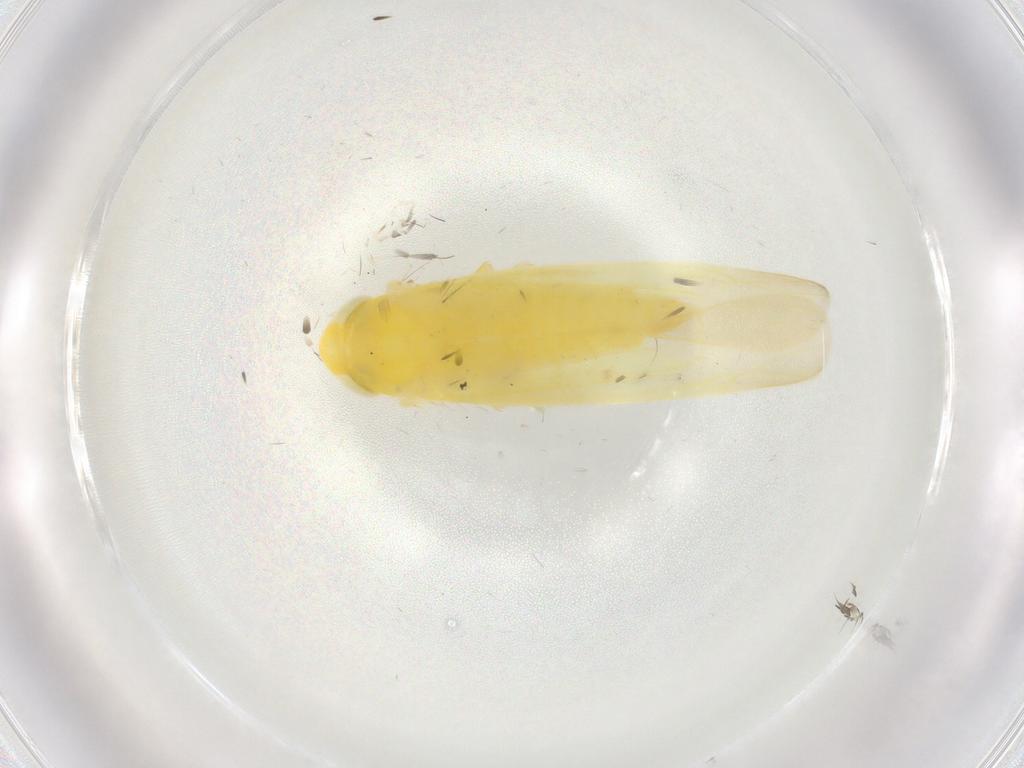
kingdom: Animalia
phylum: Arthropoda
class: Insecta
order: Hemiptera
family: Cicadellidae
